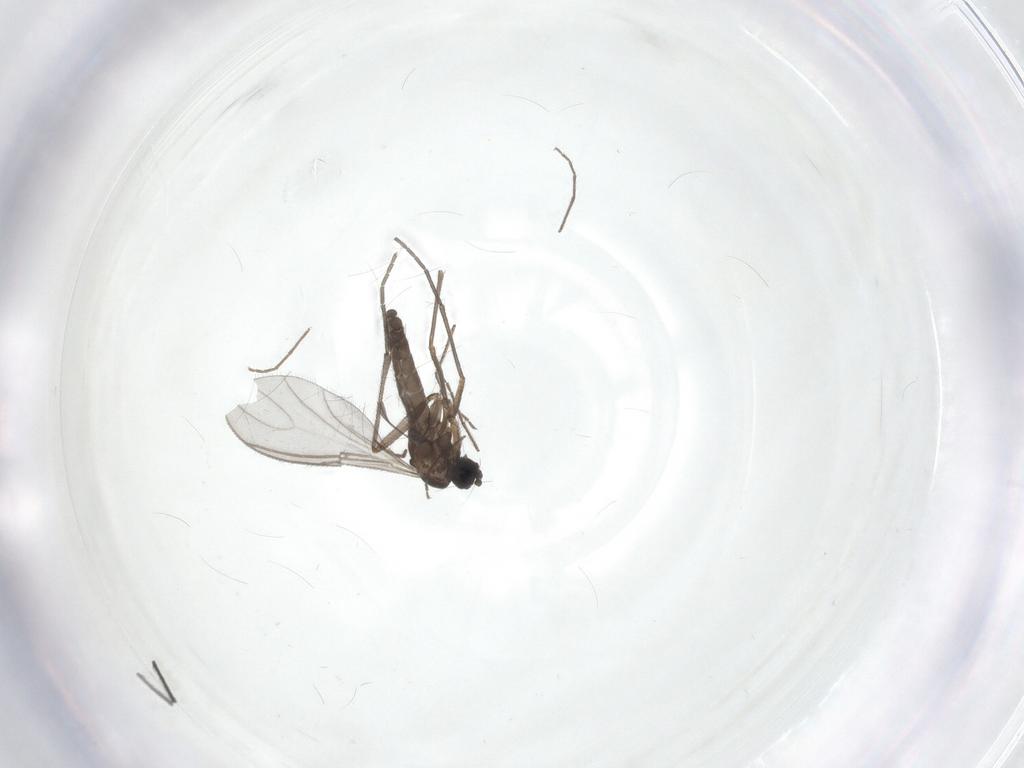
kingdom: Animalia
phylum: Arthropoda
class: Insecta
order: Diptera
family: Sciaridae
